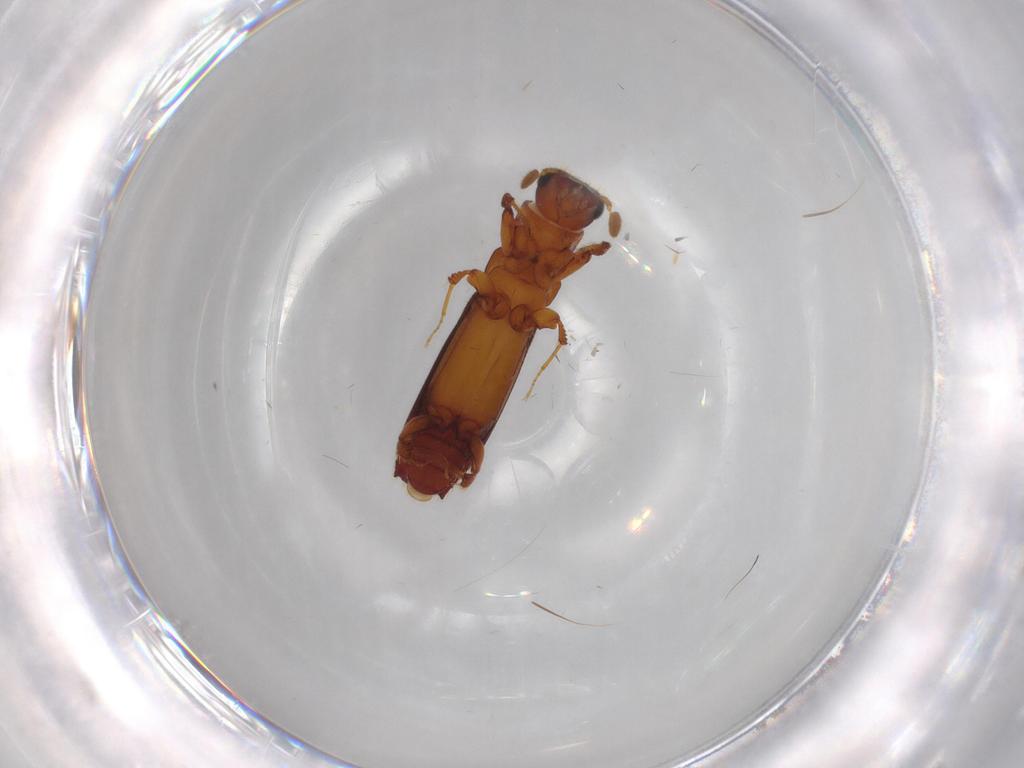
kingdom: Animalia
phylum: Arthropoda
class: Insecta
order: Coleoptera
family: Curculionidae
